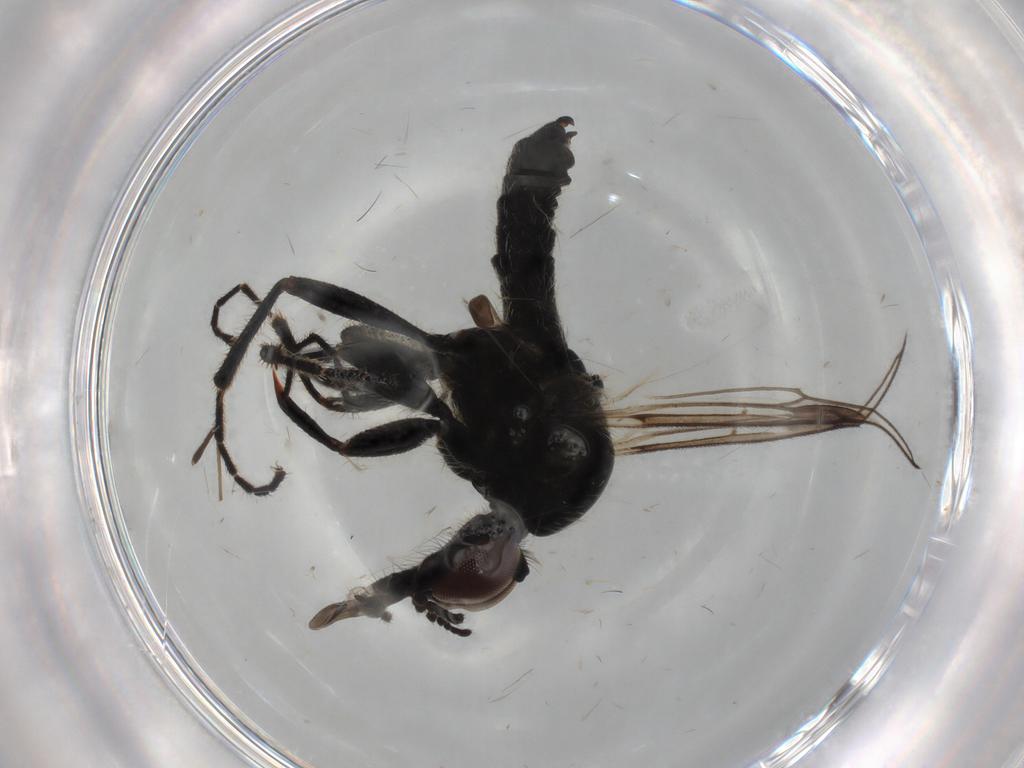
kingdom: Animalia
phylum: Arthropoda
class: Insecta
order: Diptera
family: Bibionidae
